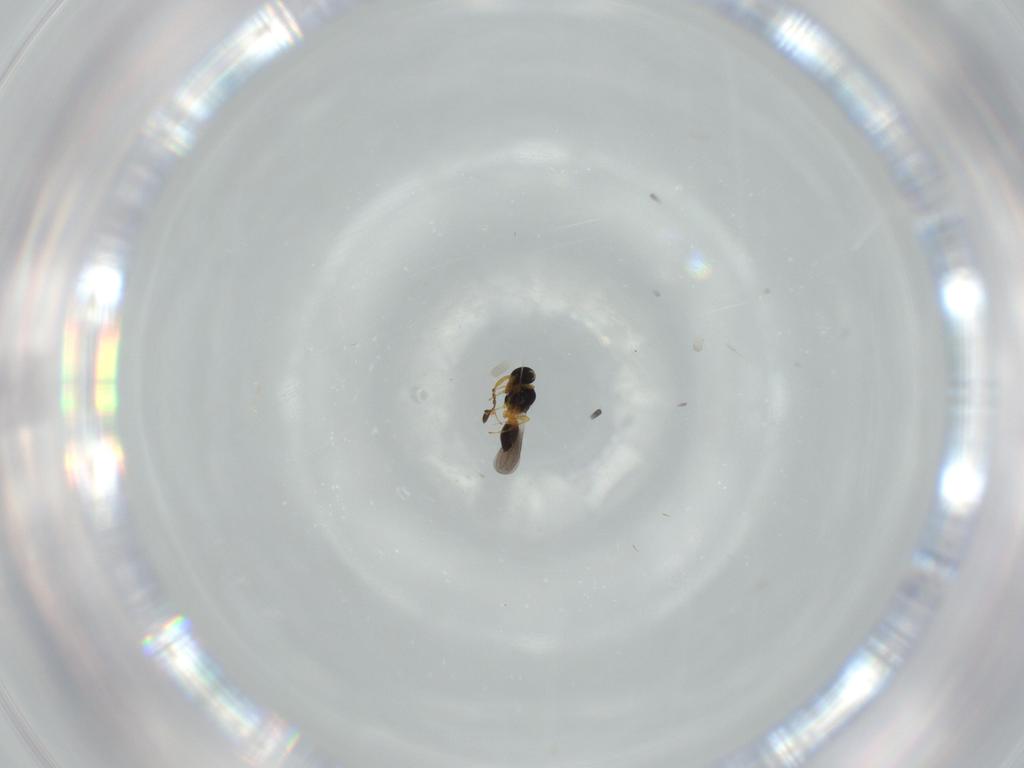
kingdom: Animalia
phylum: Arthropoda
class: Insecta
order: Hymenoptera
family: Platygastridae
